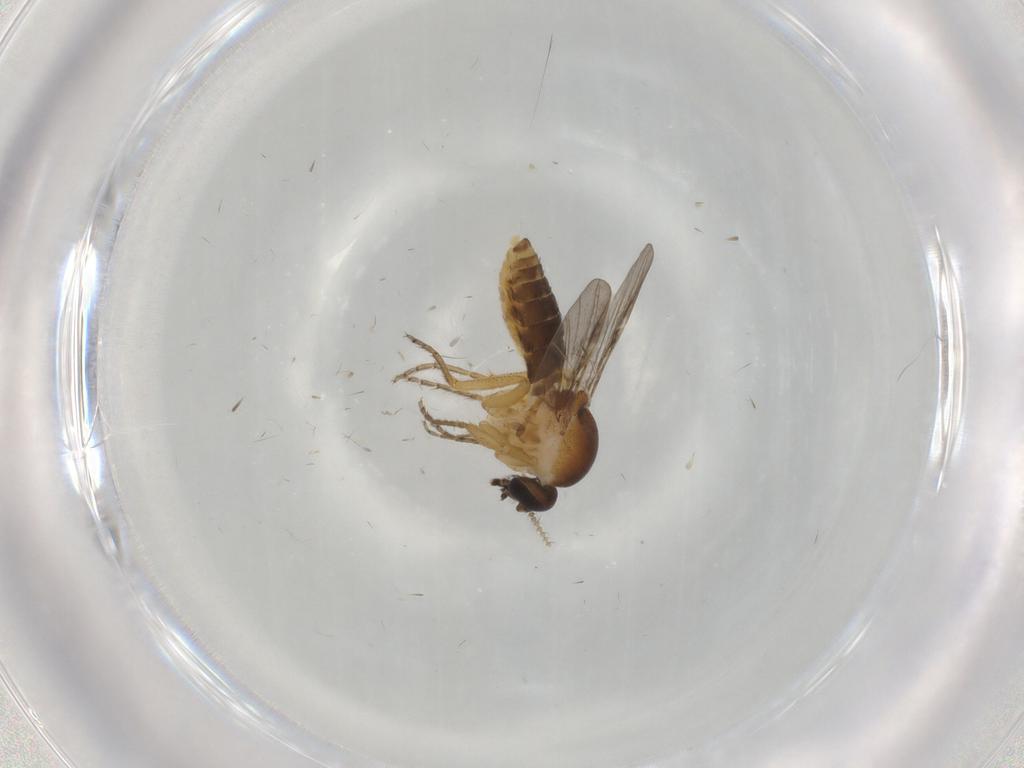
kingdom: Animalia
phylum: Arthropoda
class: Insecta
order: Diptera
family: Ceratopogonidae
